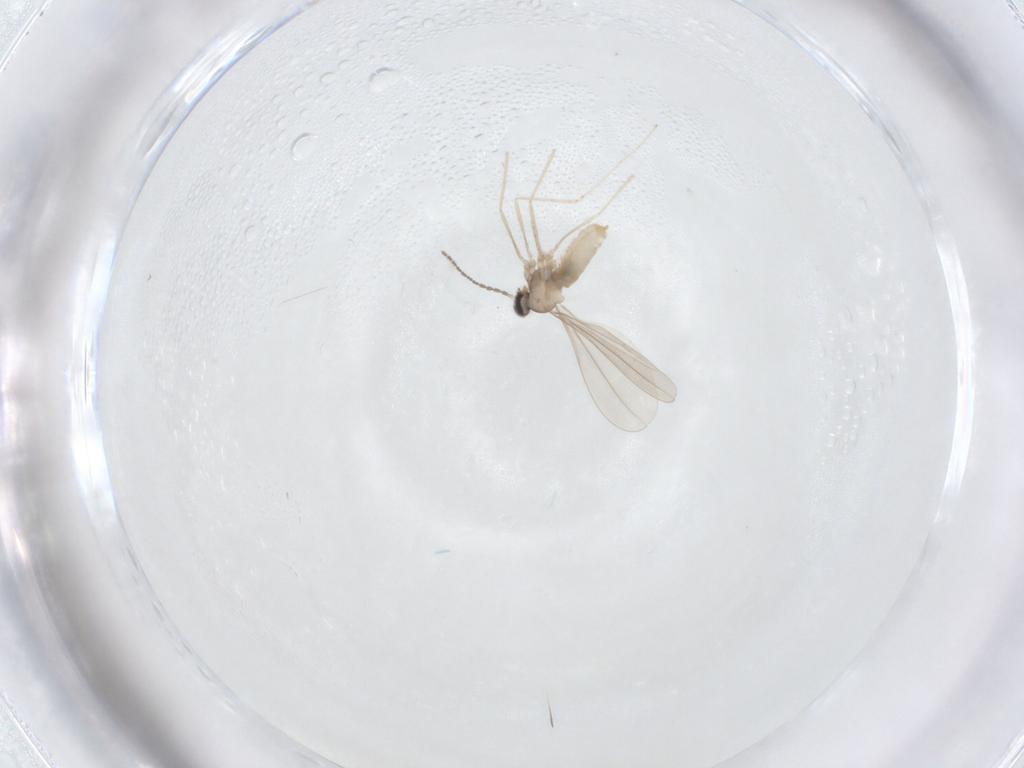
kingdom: Animalia
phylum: Arthropoda
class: Insecta
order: Diptera
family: Cecidomyiidae
